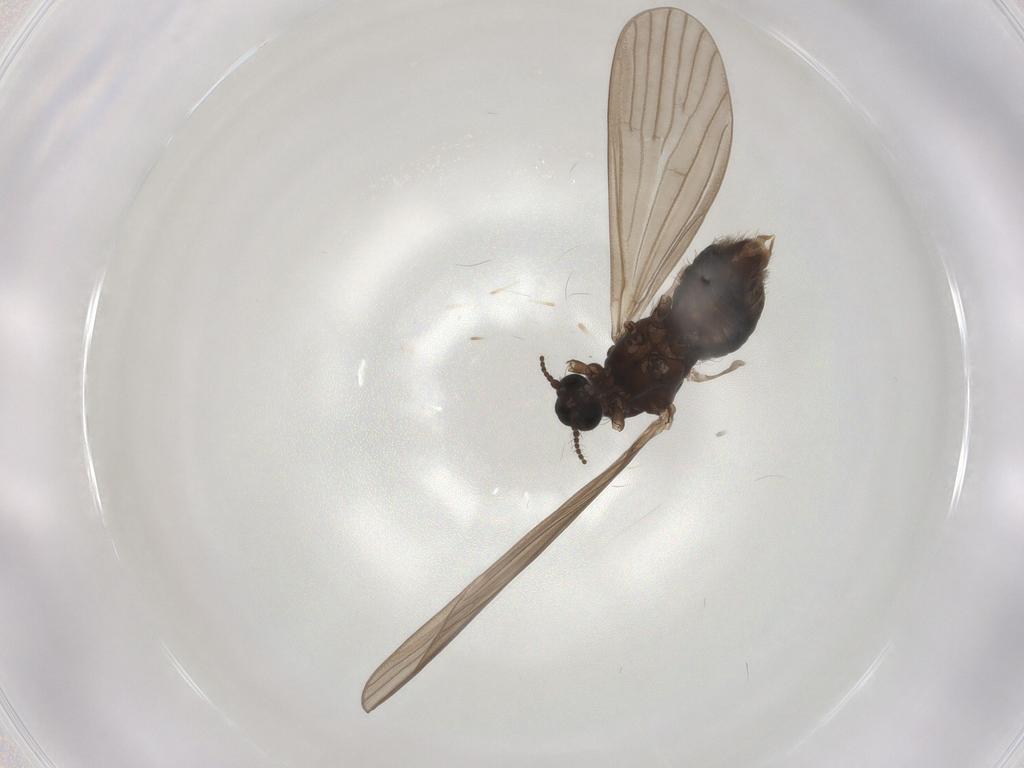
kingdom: Animalia
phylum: Arthropoda
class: Insecta
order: Diptera
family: Limoniidae
